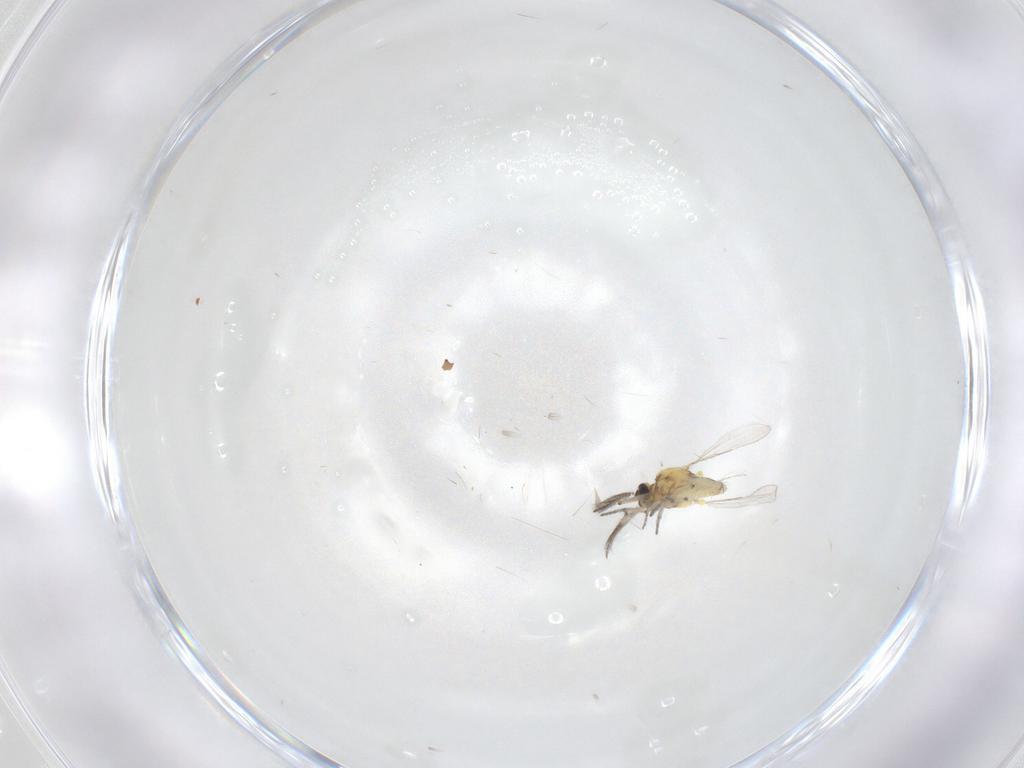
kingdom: Animalia
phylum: Arthropoda
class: Insecta
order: Diptera
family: Ceratopogonidae
